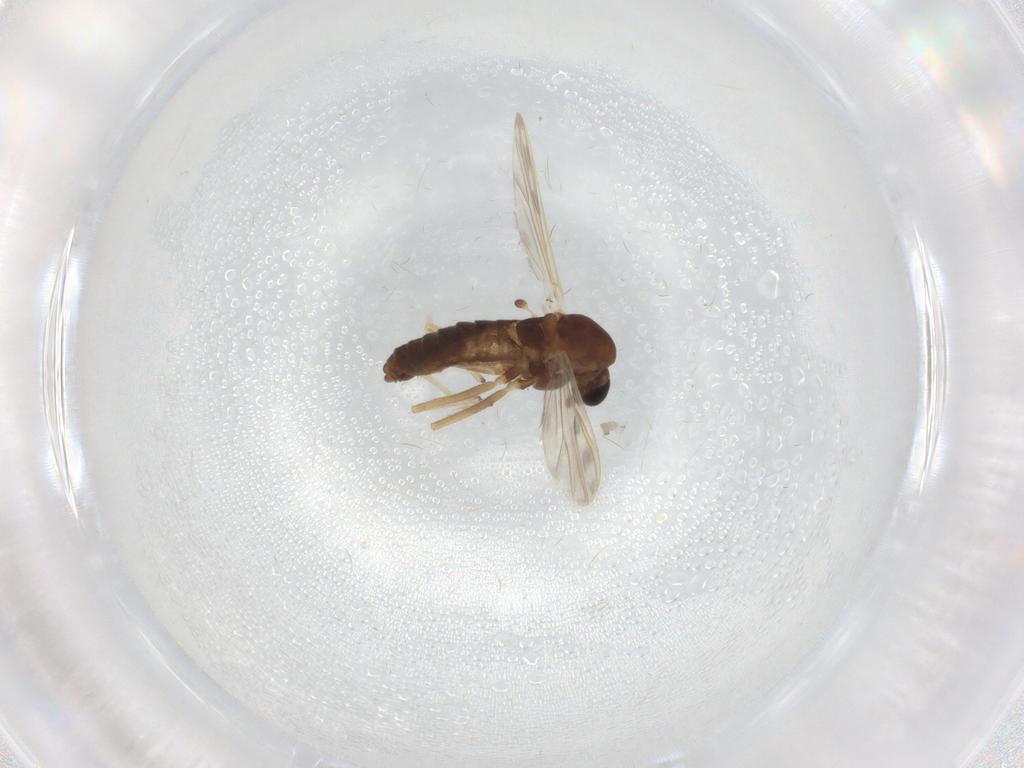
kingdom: Animalia
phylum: Arthropoda
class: Insecta
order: Diptera
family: Chironomidae
